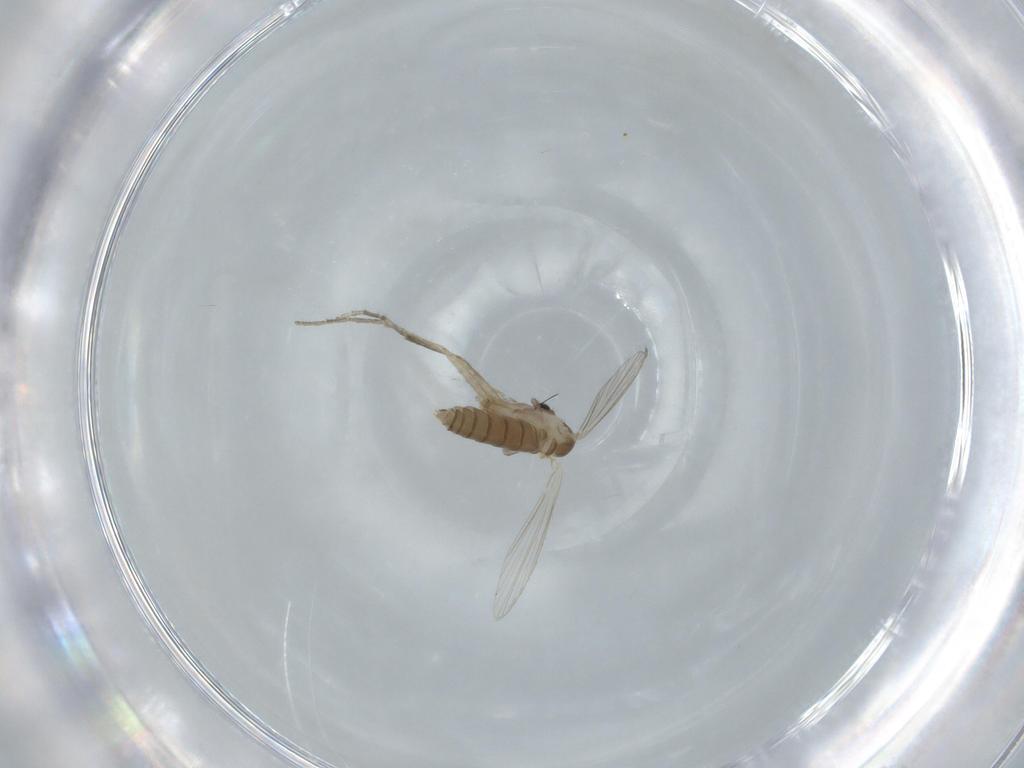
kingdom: Animalia
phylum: Arthropoda
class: Insecta
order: Diptera
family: Psychodidae
